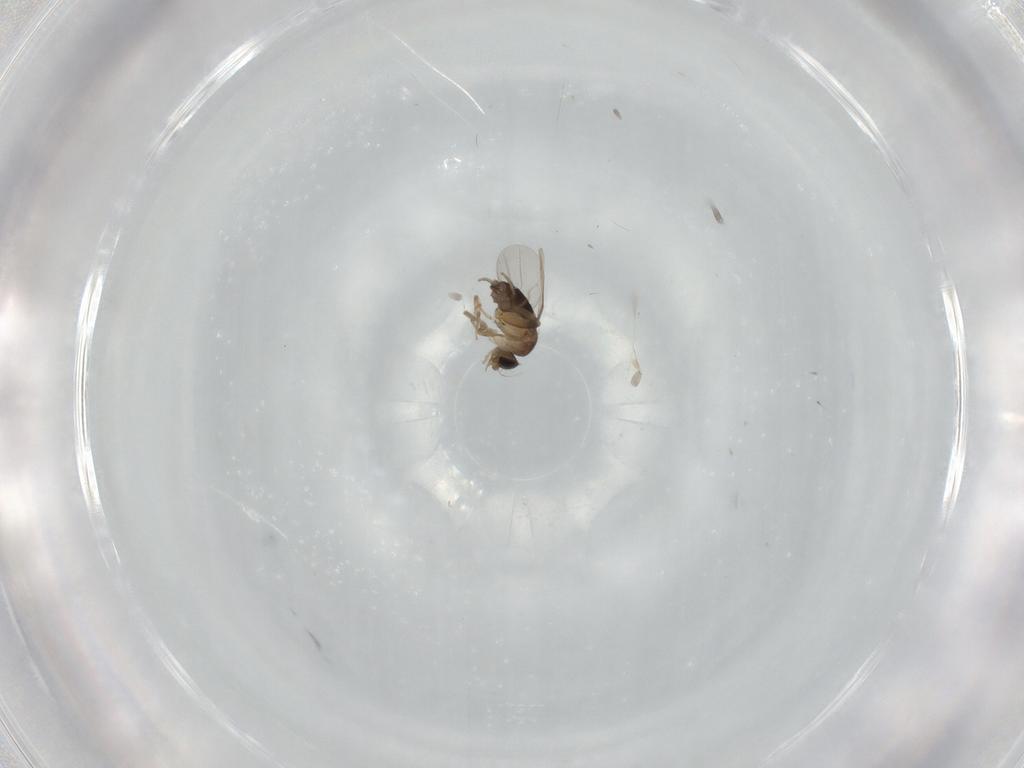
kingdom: Animalia
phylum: Arthropoda
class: Insecta
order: Diptera
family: Phoridae
